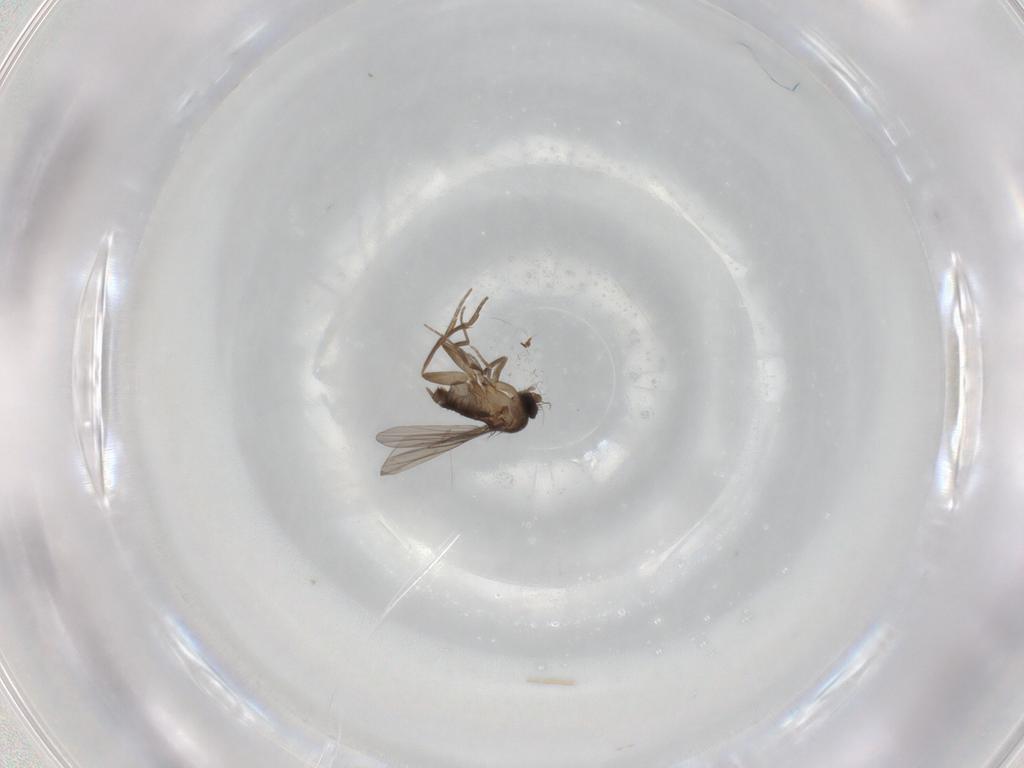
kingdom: Animalia
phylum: Arthropoda
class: Insecta
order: Diptera
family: Phoridae
